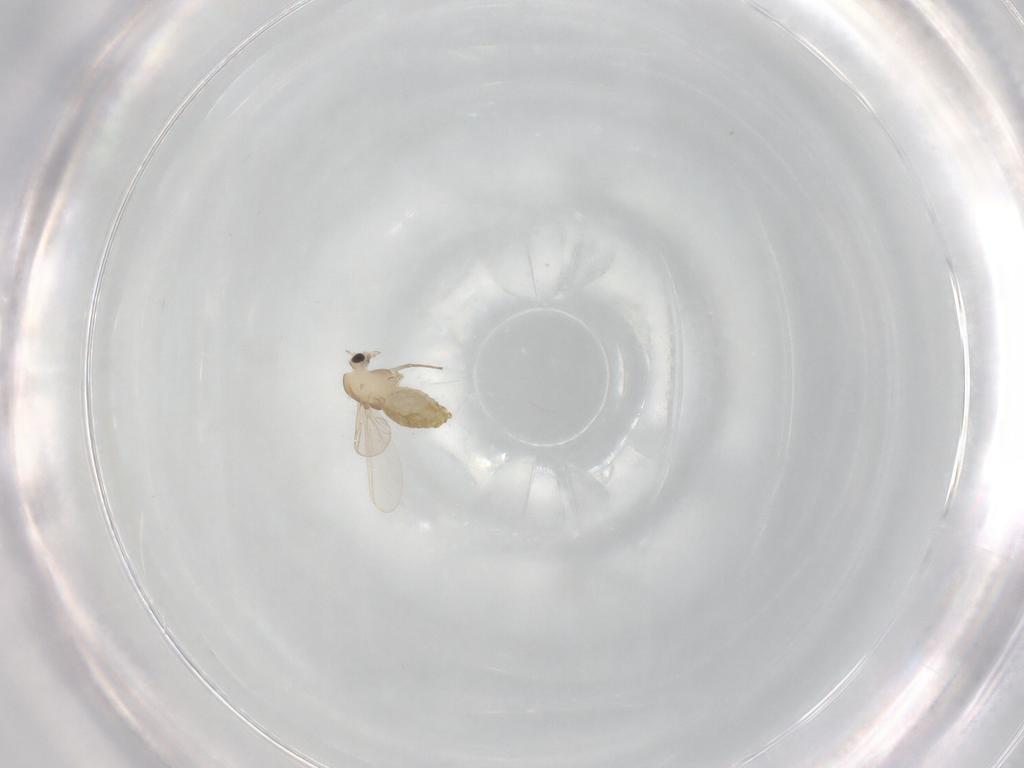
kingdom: Animalia
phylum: Arthropoda
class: Insecta
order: Diptera
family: Chironomidae
